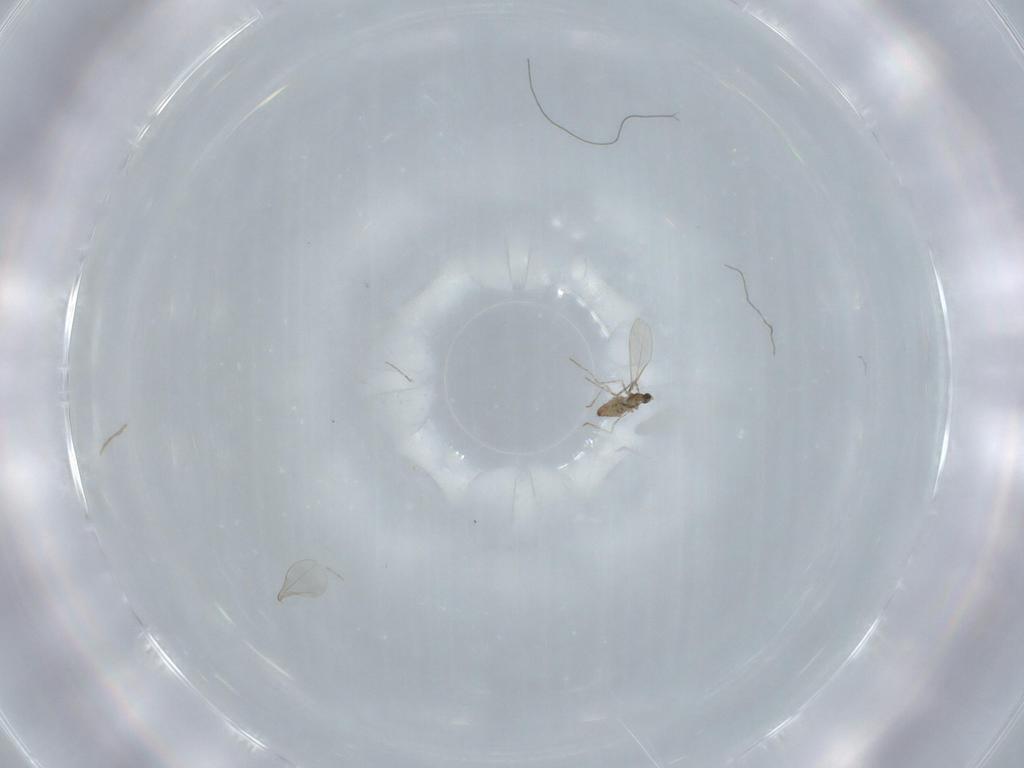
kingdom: Animalia
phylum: Arthropoda
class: Insecta
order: Diptera
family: Cecidomyiidae
